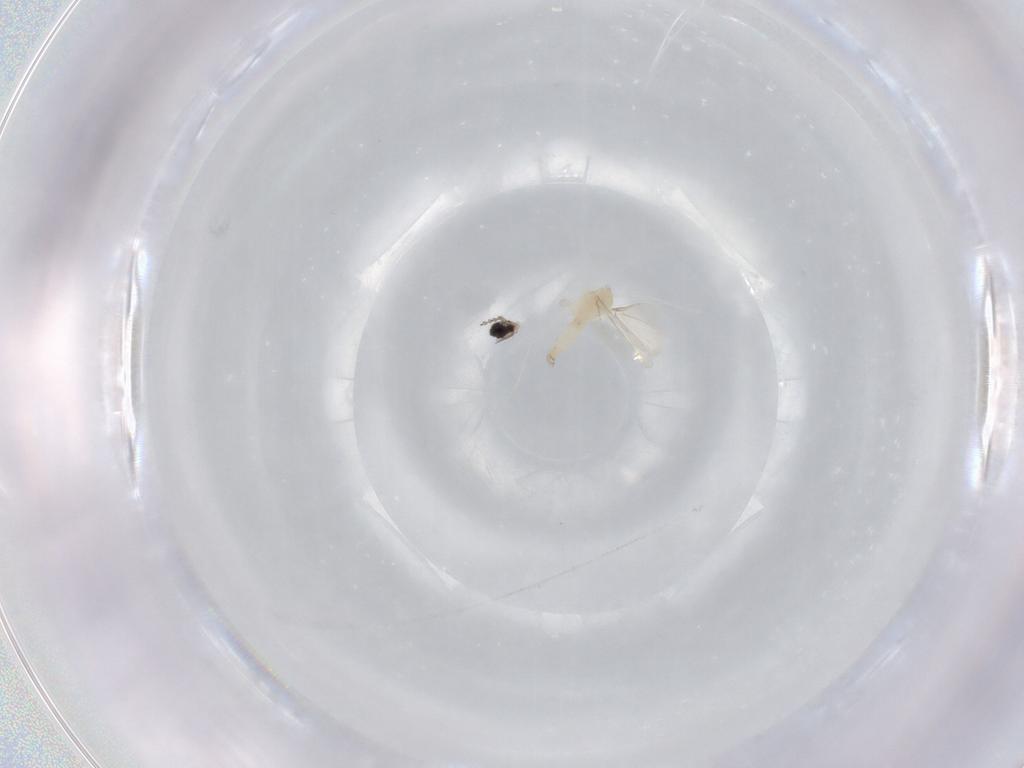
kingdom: Animalia
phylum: Arthropoda
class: Insecta
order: Diptera
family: Cecidomyiidae
